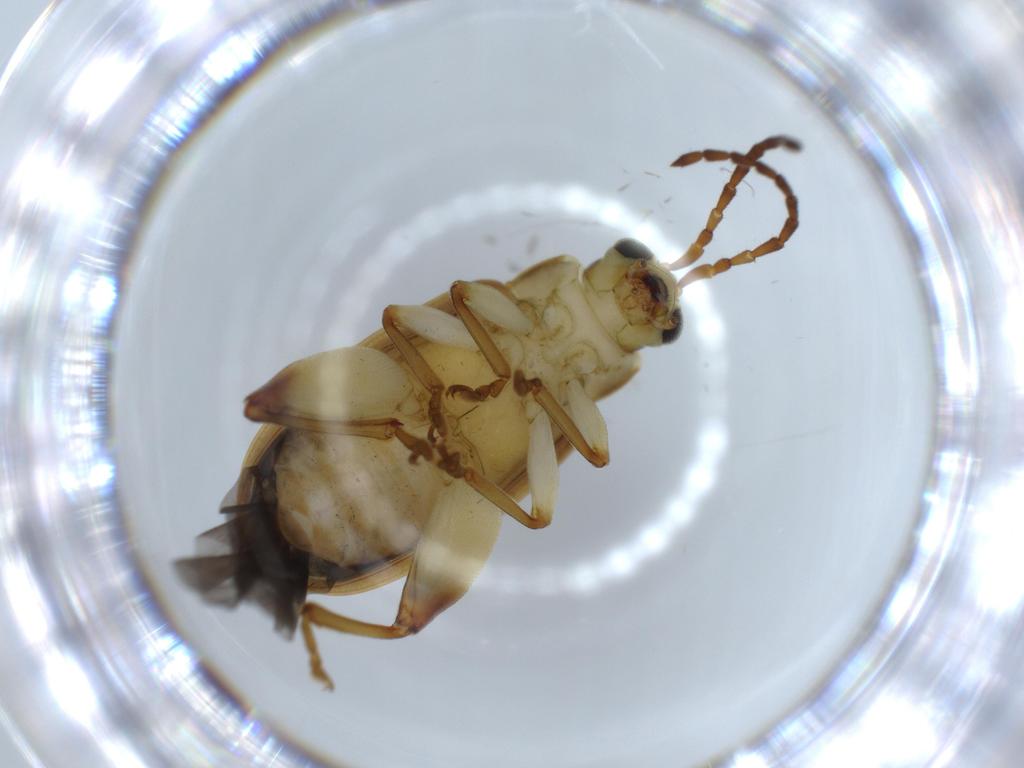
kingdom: Animalia
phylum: Arthropoda
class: Insecta
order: Coleoptera
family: Chrysomelidae
